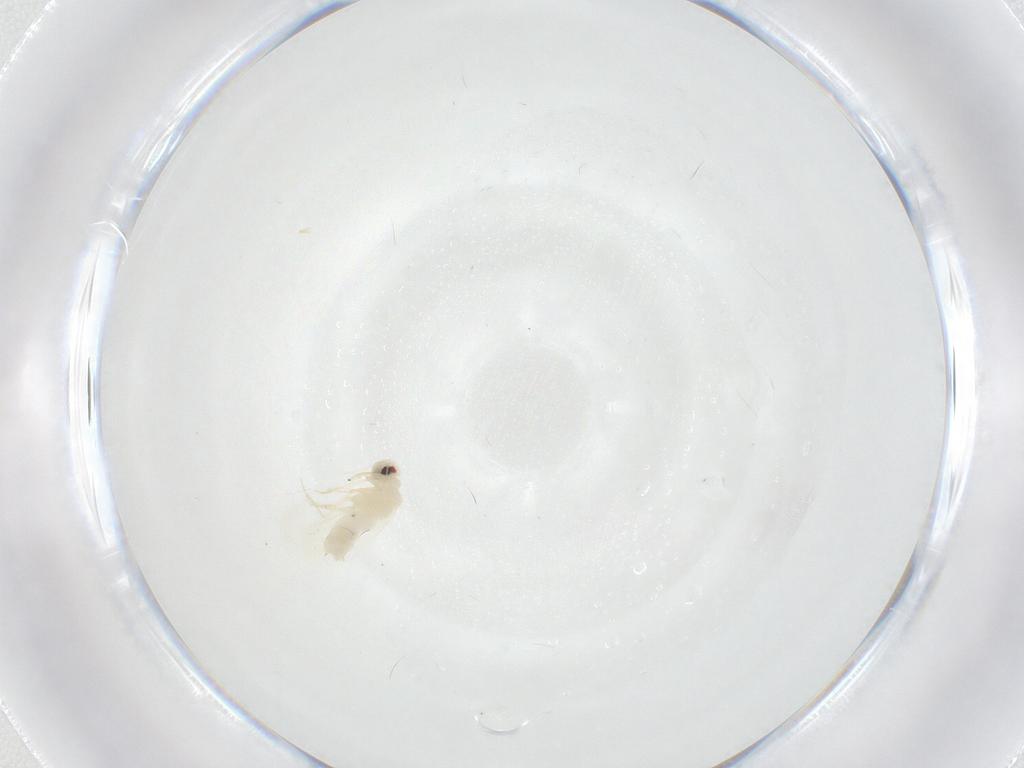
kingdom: Animalia
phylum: Arthropoda
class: Insecta
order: Hemiptera
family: Aleyrodidae
